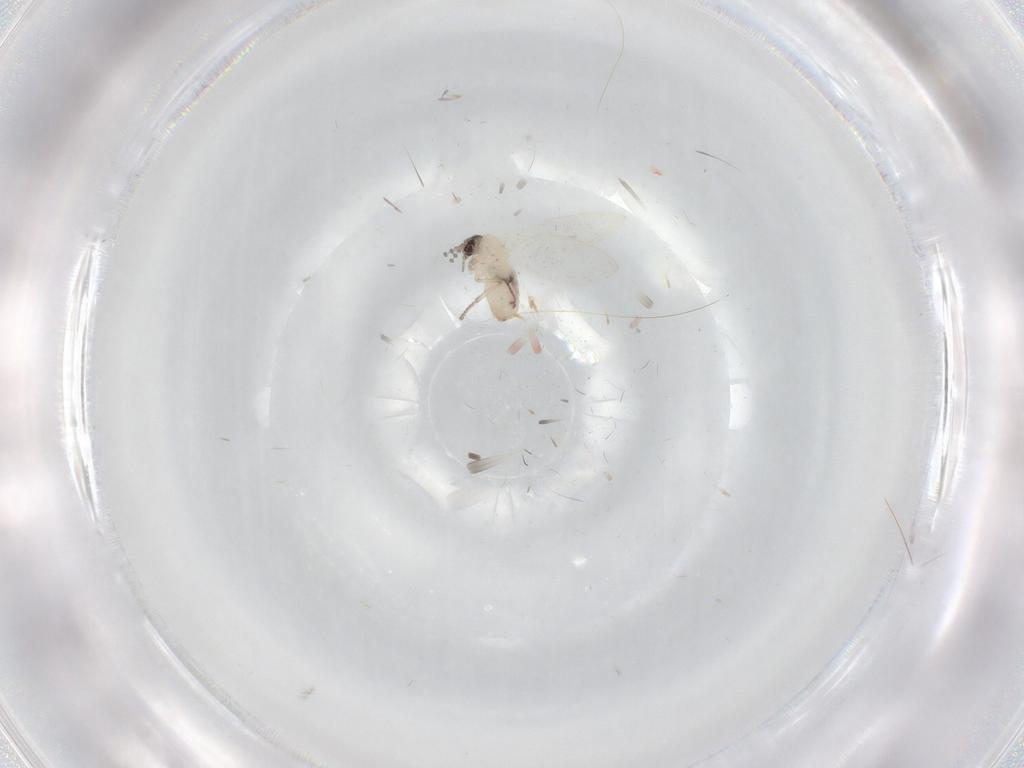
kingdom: Animalia
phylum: Arthropoda
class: Insecta
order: Diptera
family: Psychodidae
